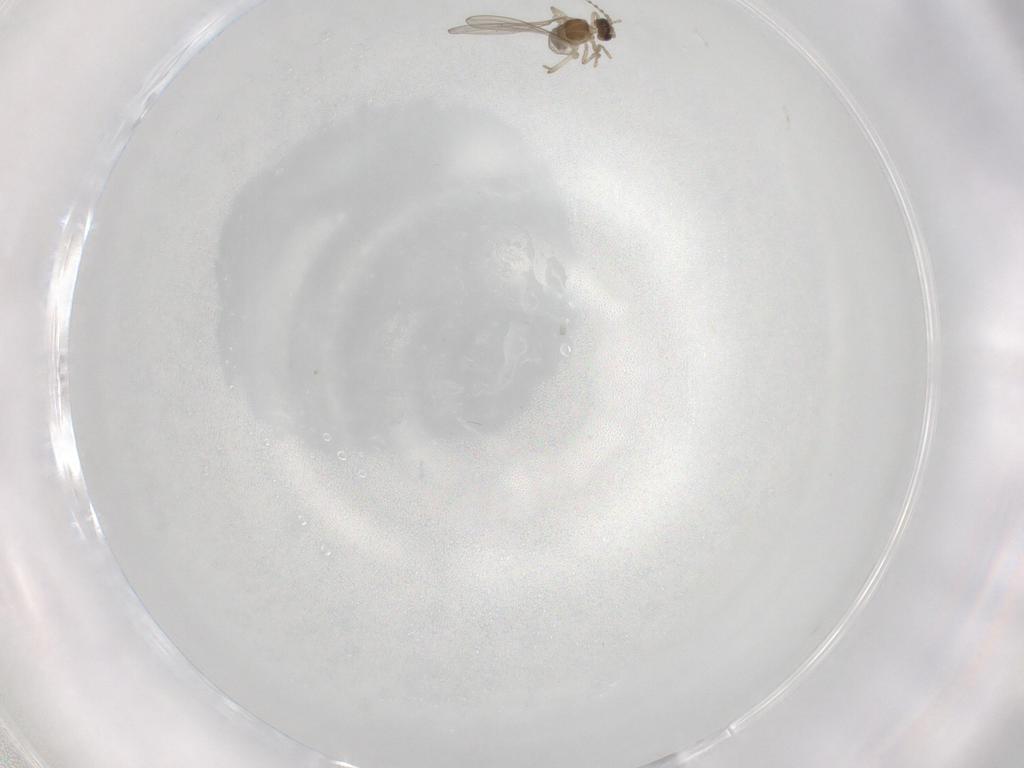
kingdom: Animalia
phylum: Arthropoda
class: Insecta
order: Diptera
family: Cecidomyiidae
